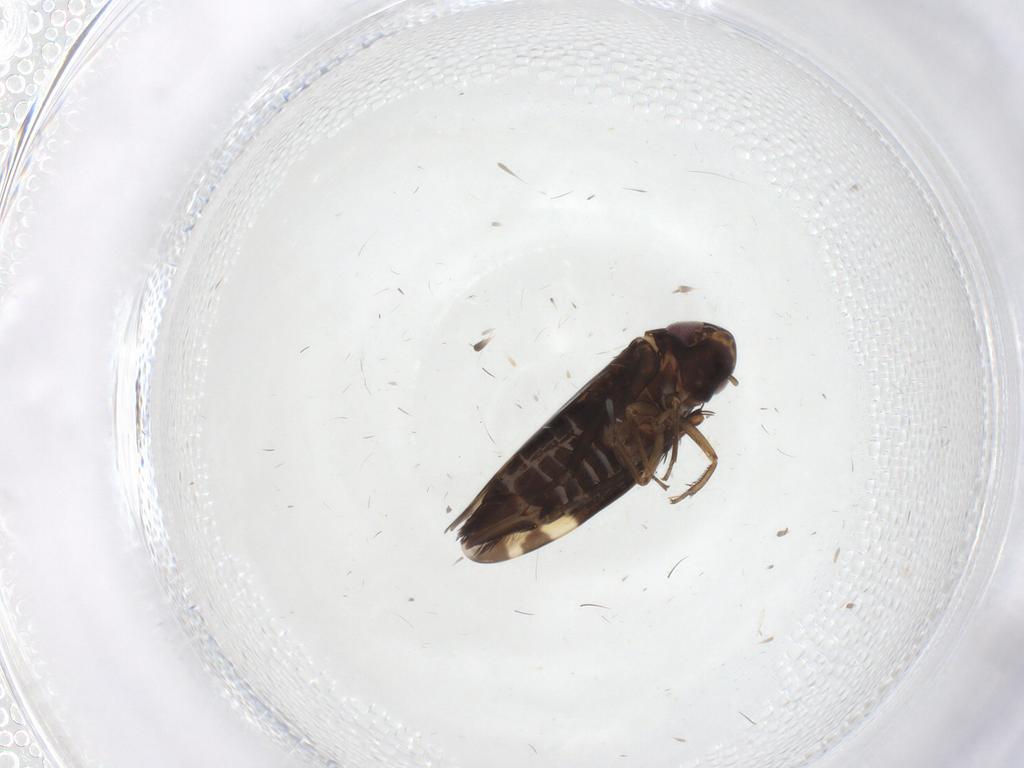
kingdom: Animalia
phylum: Arthropoda
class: Insecta
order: Hemiptera
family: Cicadellidae
